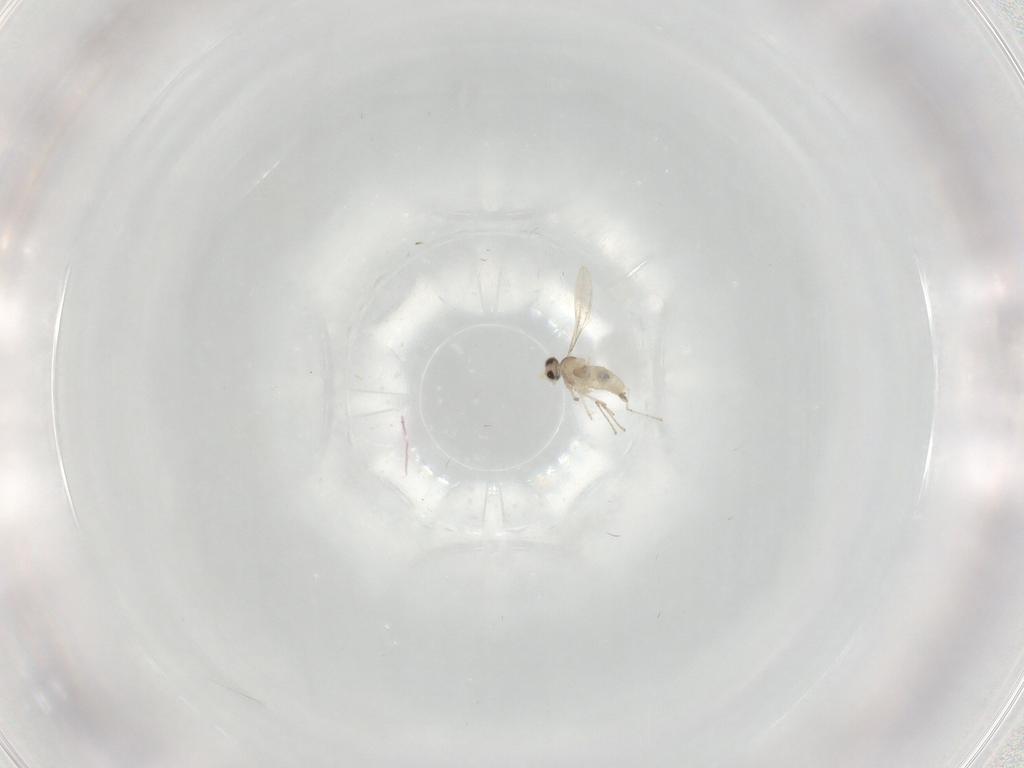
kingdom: Animalia
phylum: Arthropoda
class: Insecta
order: Diptera
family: Cecidomyiidae
